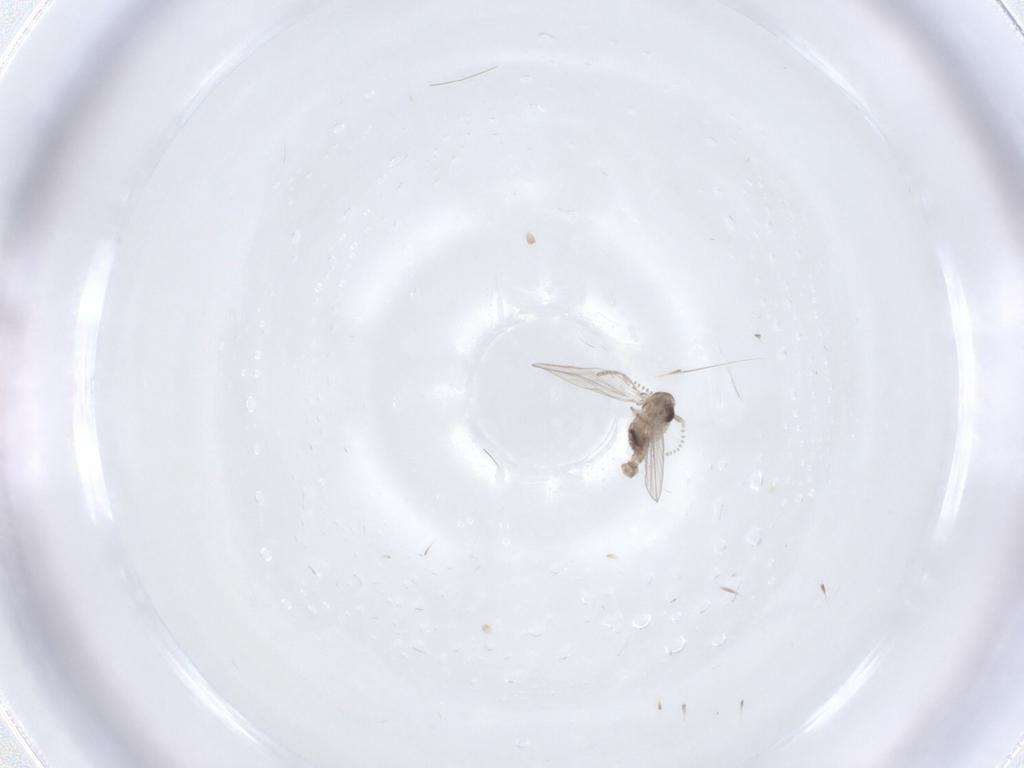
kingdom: Animalia
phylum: Arthropoda
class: Insecta
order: Diptera
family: Psychodidae
